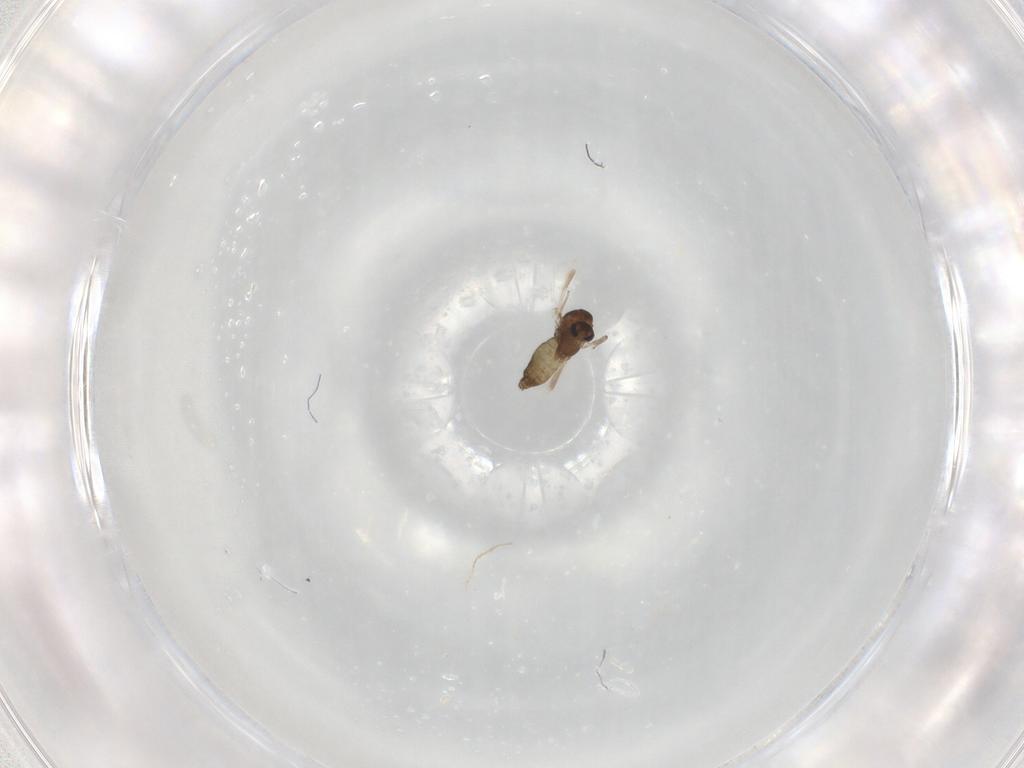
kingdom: Animalia
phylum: Arthropoda
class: Insecta
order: Diptera
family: Chironomidae
